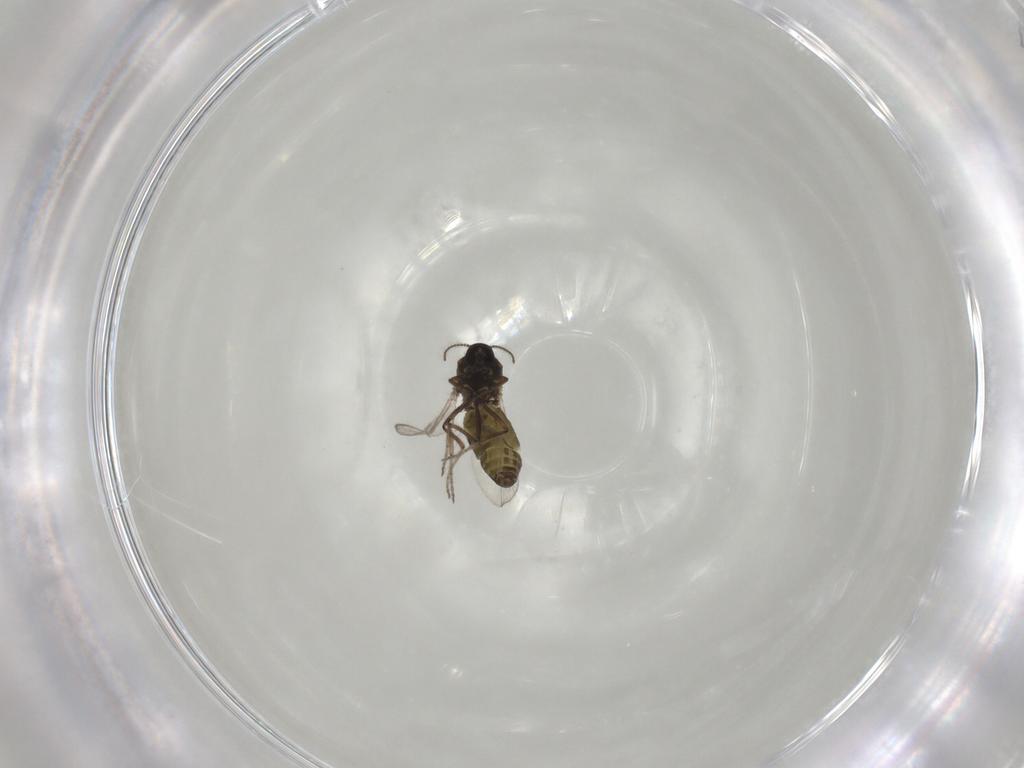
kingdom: Animalia
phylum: Arthropoda
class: Insecta
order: Diptera
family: Ceratopogonidae
